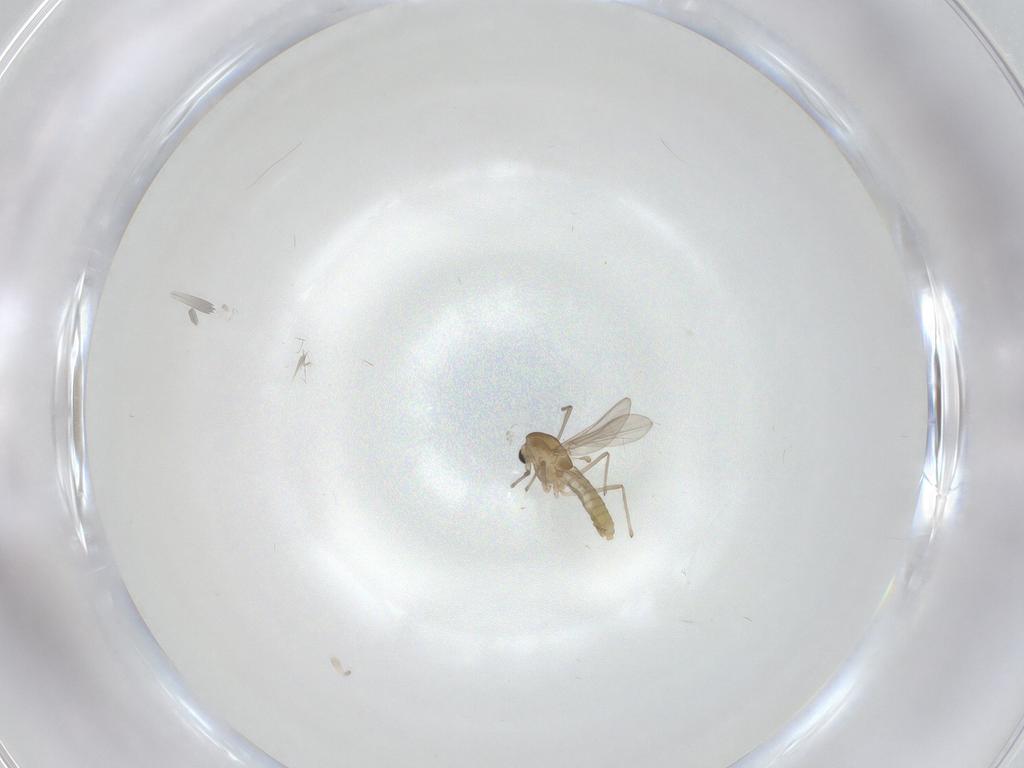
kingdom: Animalia
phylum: Arthropoda
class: Insecta
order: Diptera
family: Chironomidae
